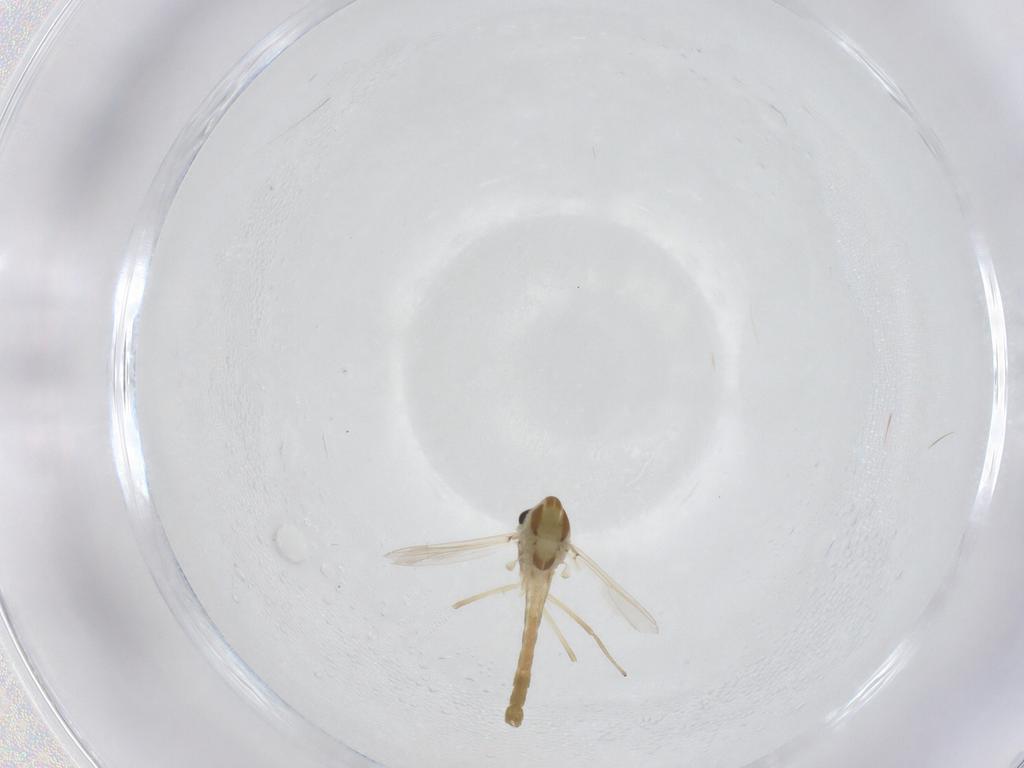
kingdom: Animalia
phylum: Arthropoda
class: Insecta
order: Diptera
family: Chironomidae
